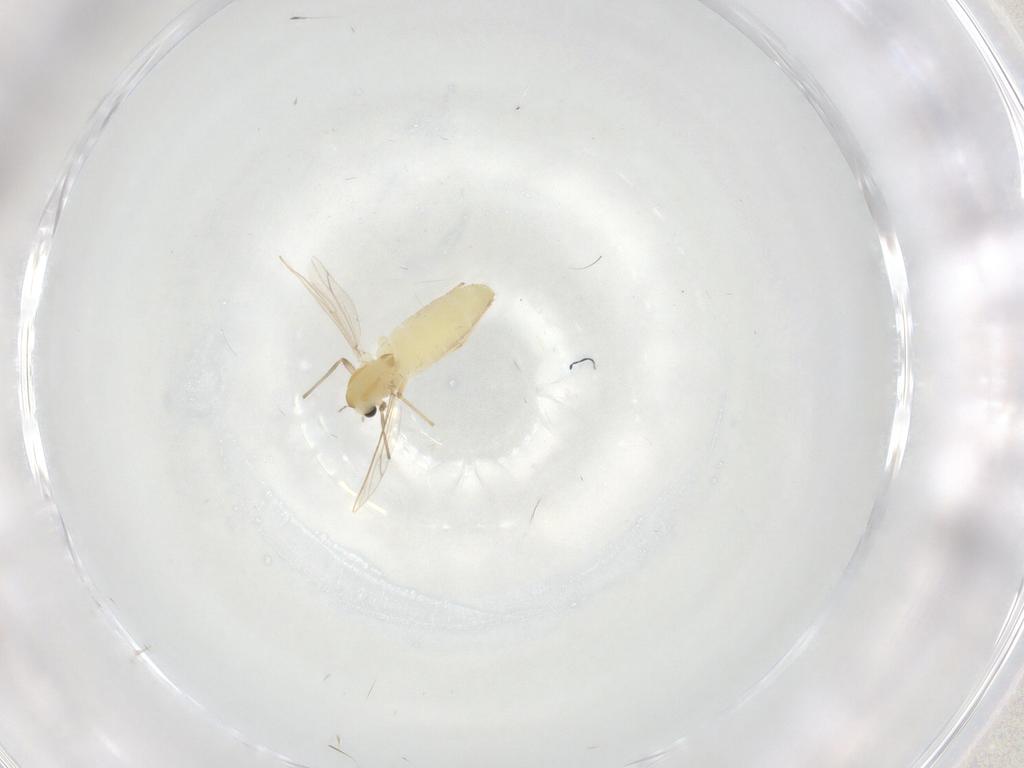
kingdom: Animalia
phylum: Arthropoda
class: Insecta
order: Diptera
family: Chironomidae
